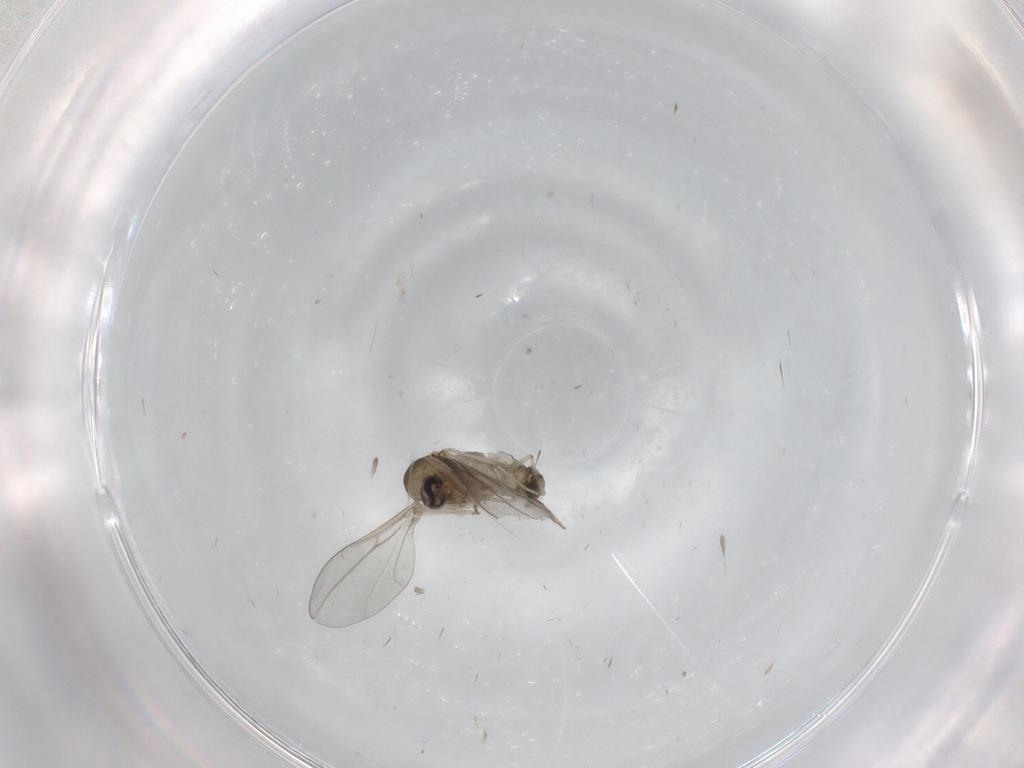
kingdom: Animalia
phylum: Arthropoda
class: Insecta
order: Diptera
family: Cecidomyiidae
